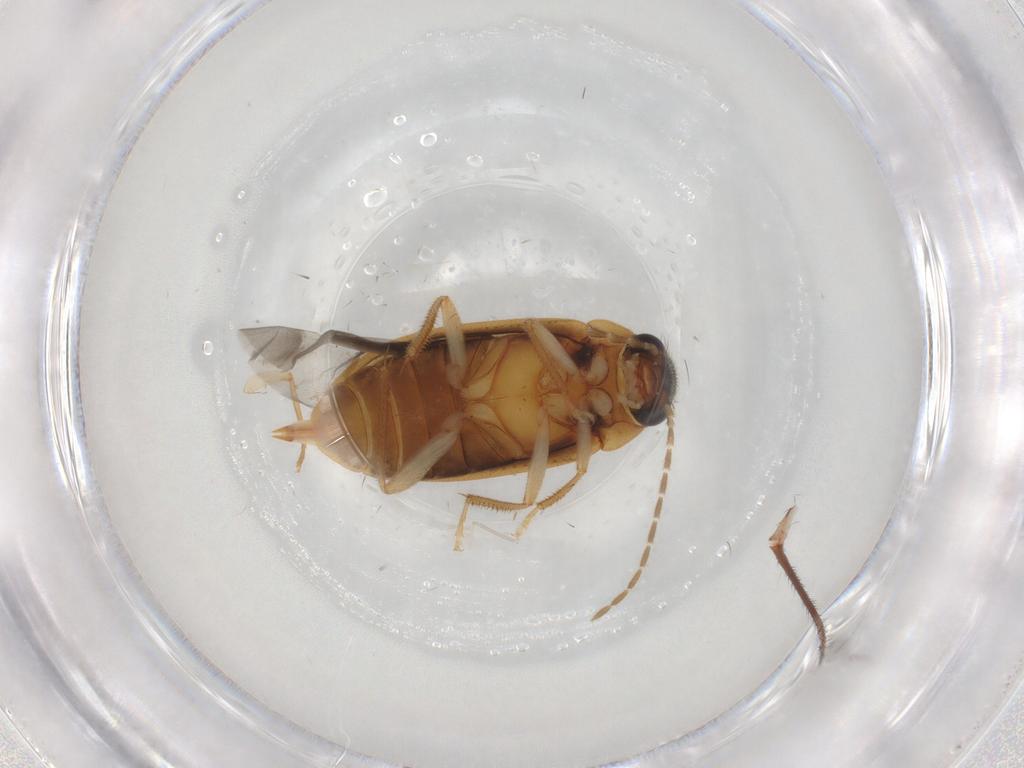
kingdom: Animalia
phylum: Arthropoda
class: Insecta
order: Coleoptera
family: Mordellidae
